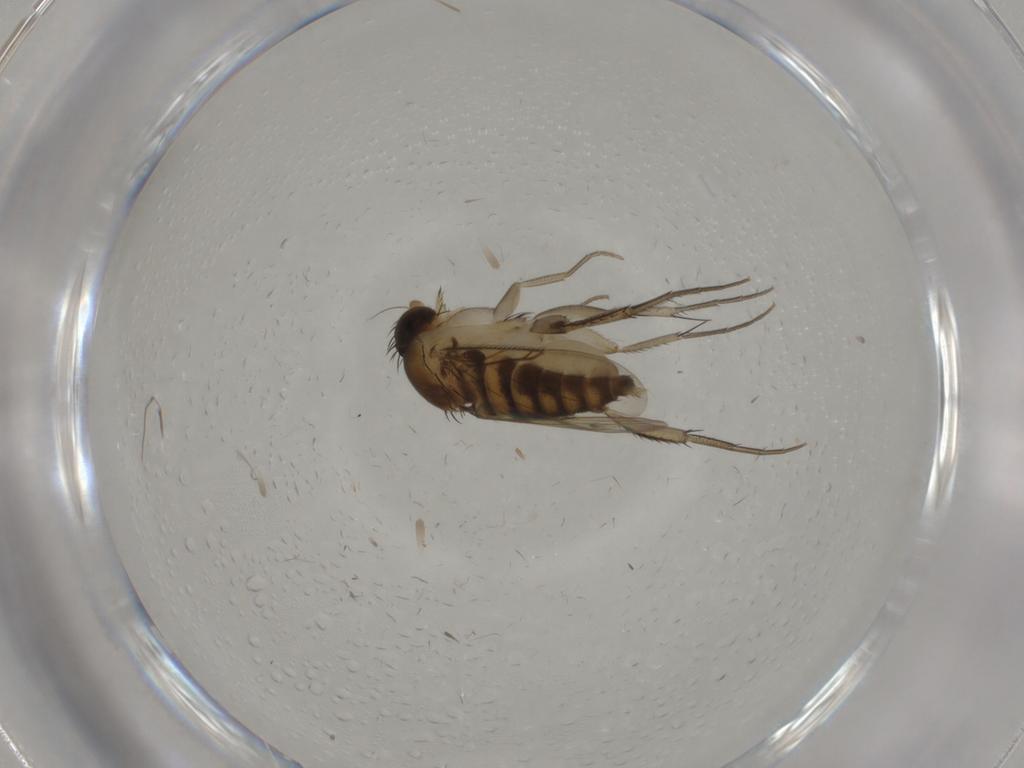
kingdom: Animalia
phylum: Arthropoda
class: Insecta
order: Diptera
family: Phoridae
